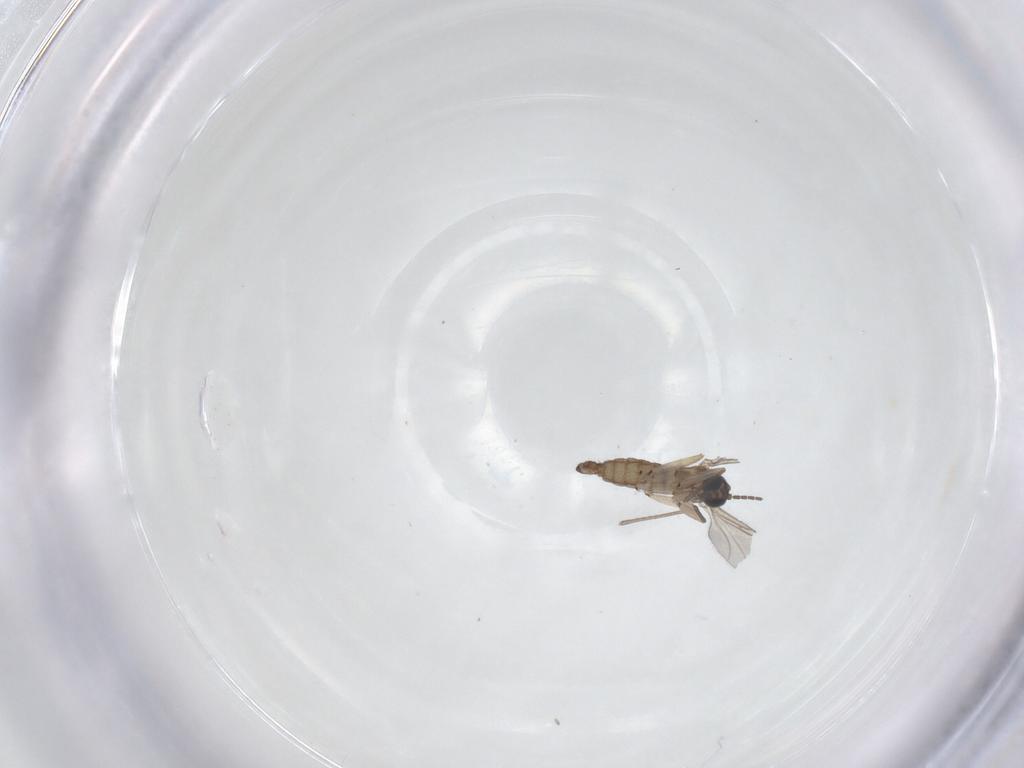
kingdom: Animalia
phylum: Arthropoda
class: Insecta
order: Diptera
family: Sciaridae
